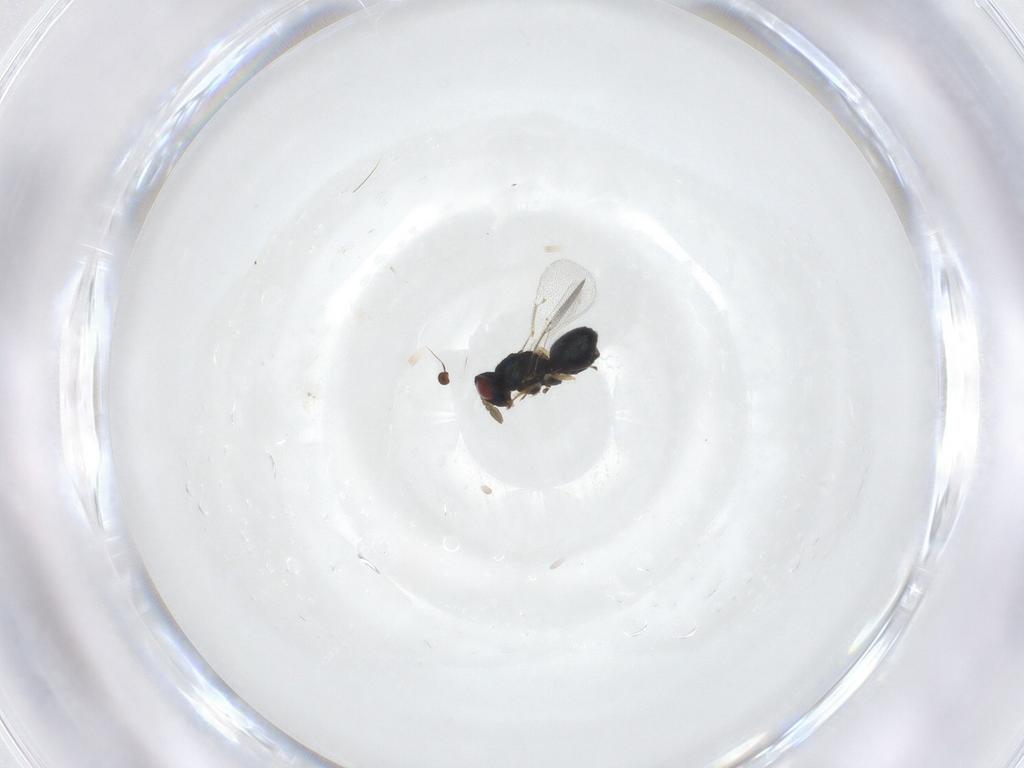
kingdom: Animalia
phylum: Arthropoda
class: Insecta
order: Hymenoptera
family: Eulophidae
